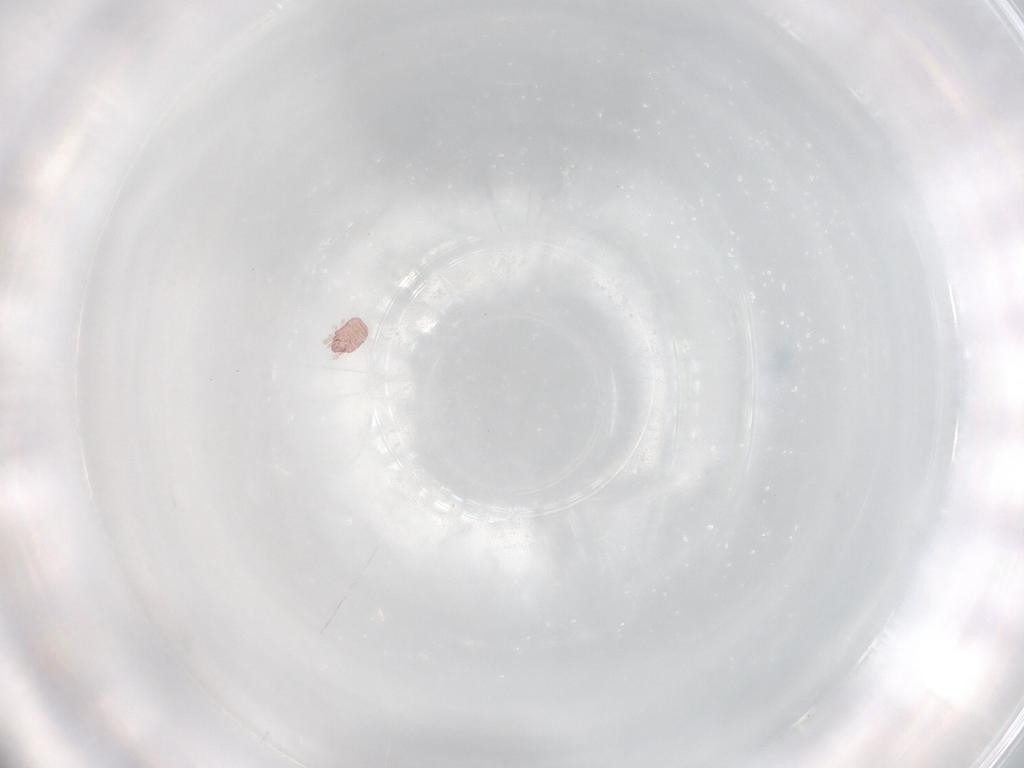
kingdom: Animalia
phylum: Arthropoda
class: Arachnida
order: Sarcoptiformes
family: Alycidae
